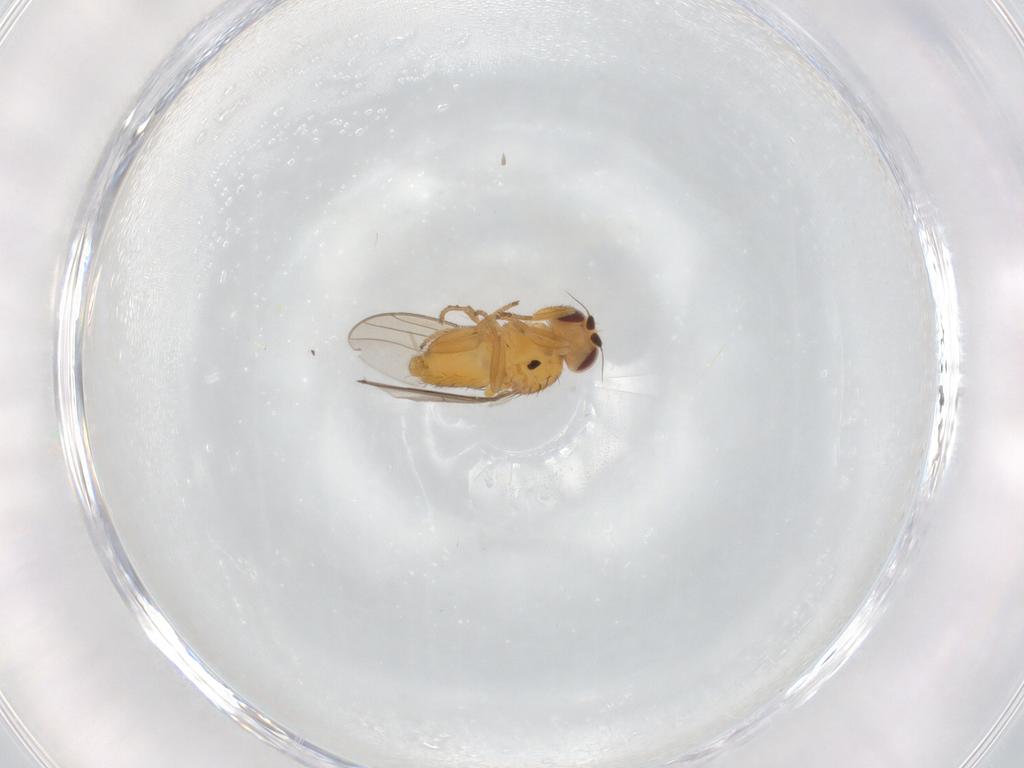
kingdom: Animalia
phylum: Arthropoda
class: Insecta
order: Diptera
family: Chloropidae
